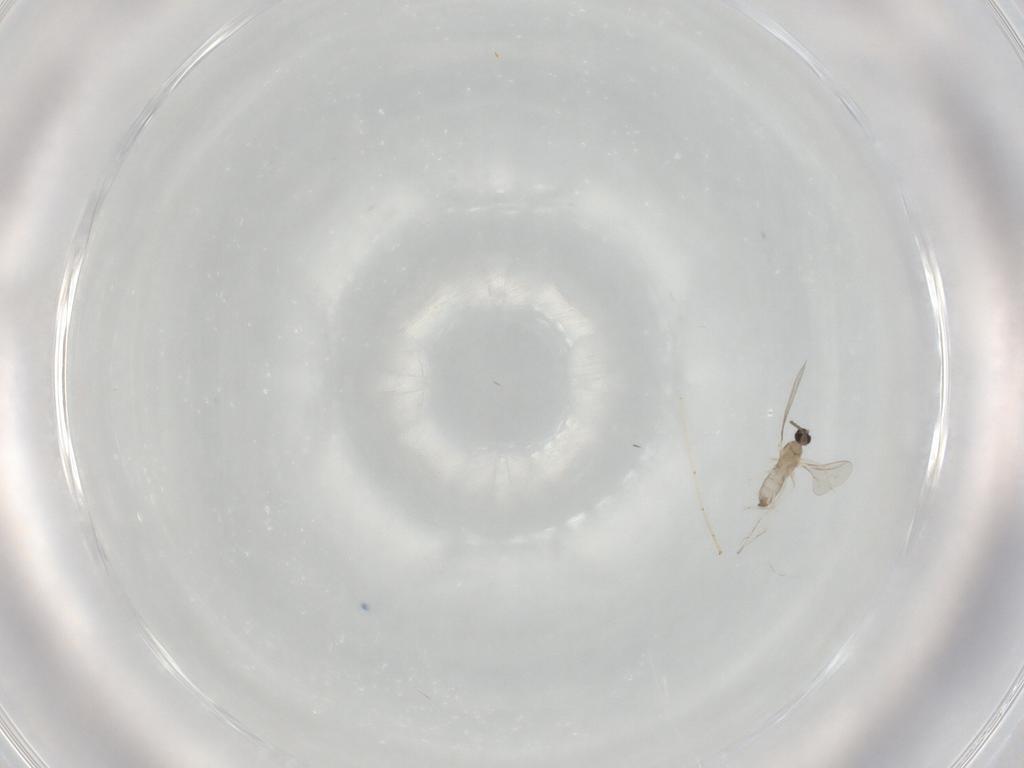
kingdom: Animalia
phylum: Arthropoda
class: Insecta
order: Diptera
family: Cecidomyiidae
